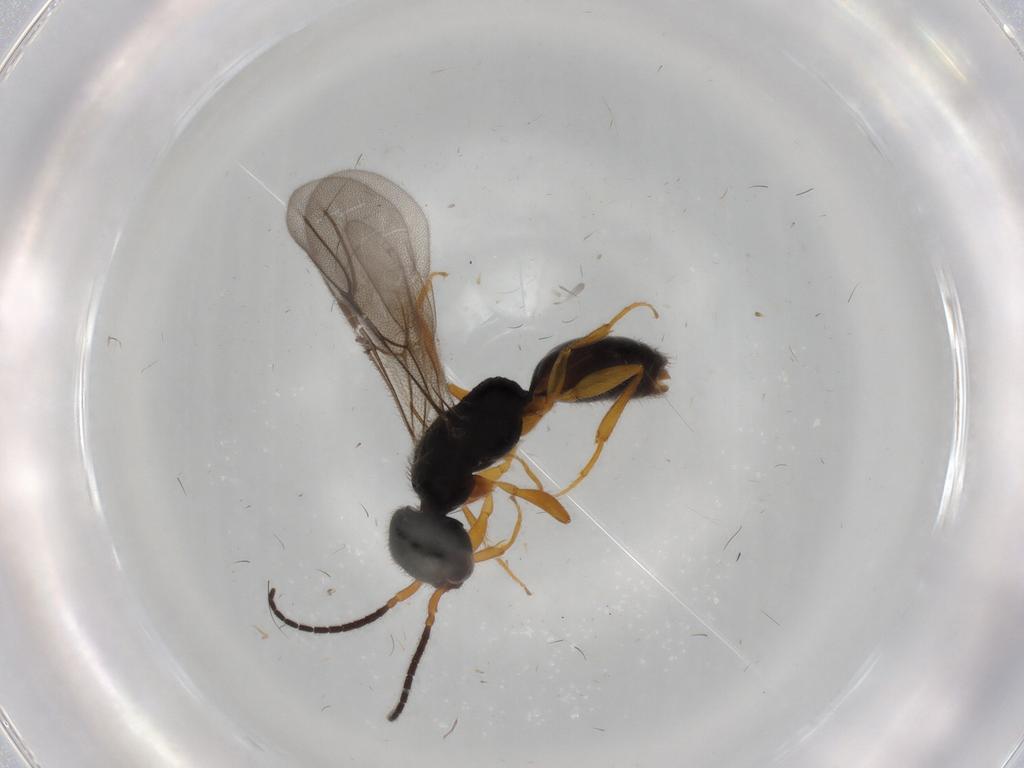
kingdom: Animalia
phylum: Arthropoda
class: Insecta
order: Hymenoptera
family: Bethylidae
